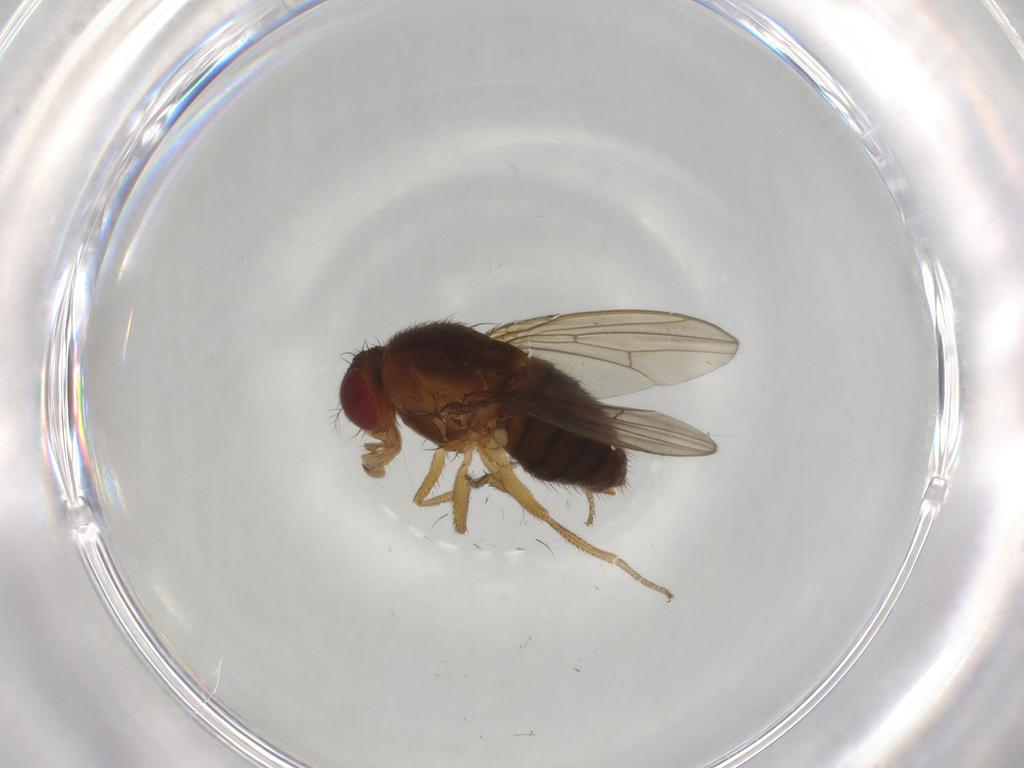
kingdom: Animalia
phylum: Arthropoda
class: Insecta
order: Diptera
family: Drosophilidae
